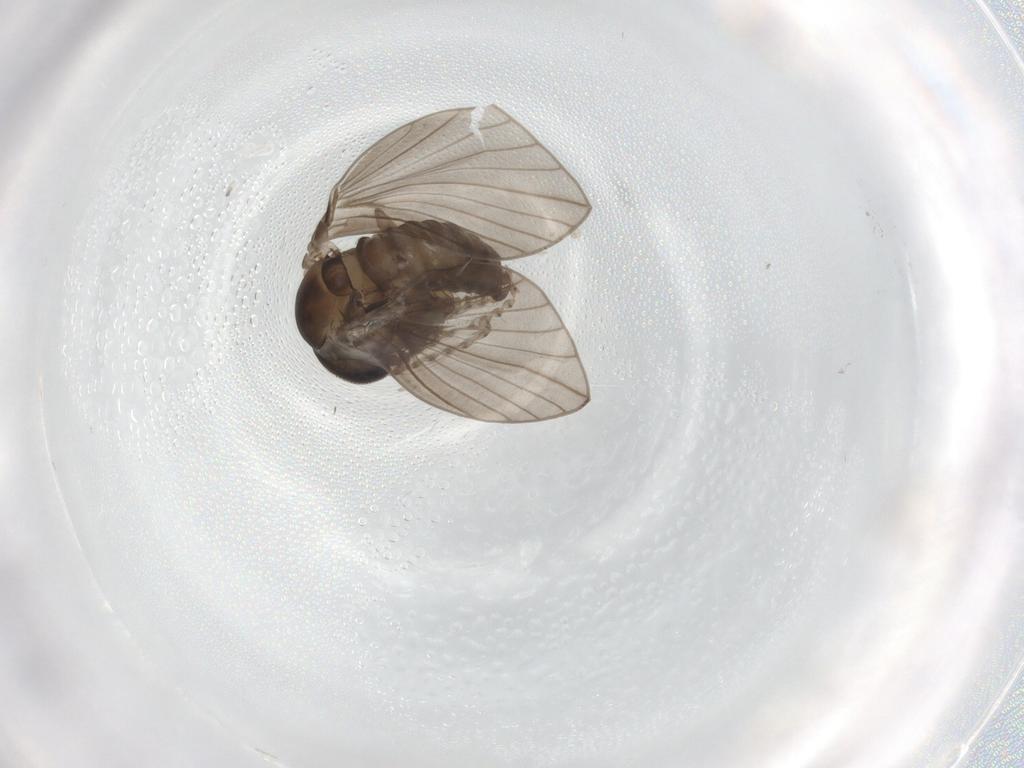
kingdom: Animalia
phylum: Arthropoda
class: Insecta
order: Diptera
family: Psychodidae
